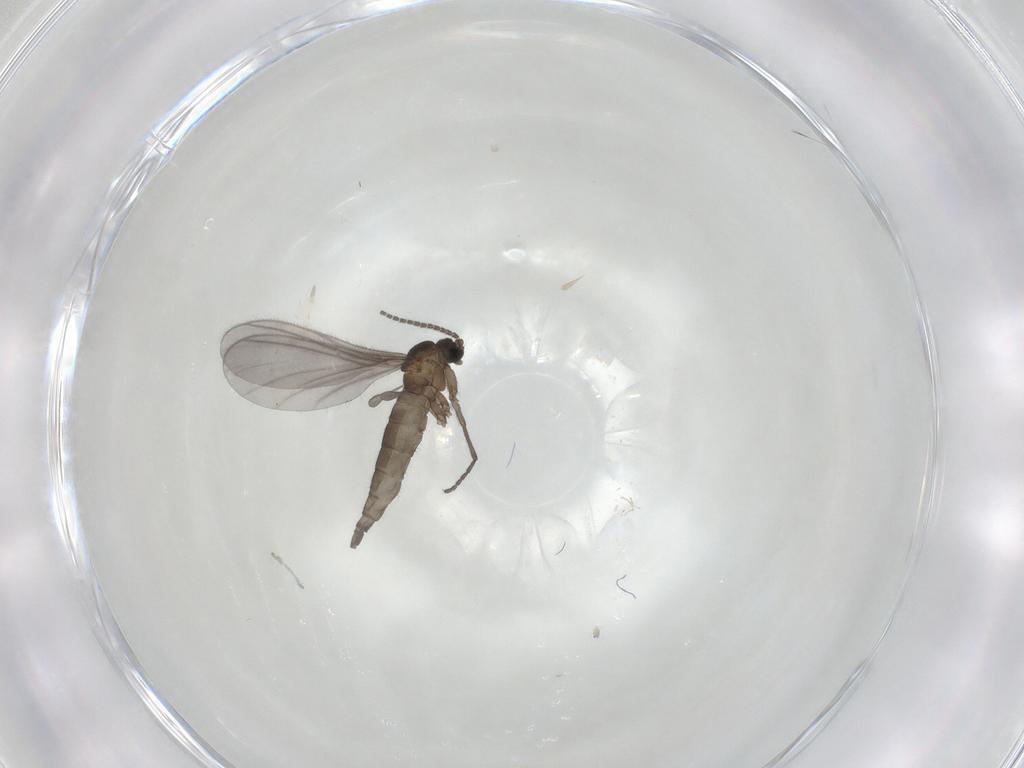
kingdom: Animalia
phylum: Arthropoda
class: Insecta
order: Diptera
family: Sciaridae
